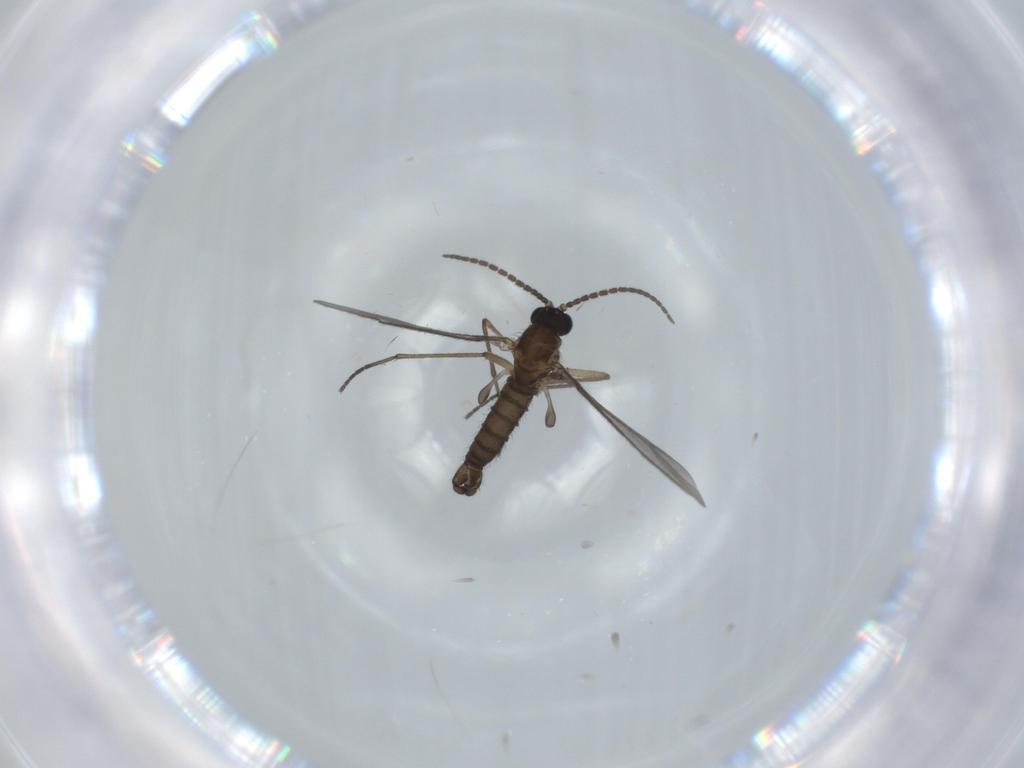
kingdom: Animalia
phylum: Arthropoda
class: Insecta
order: Diptera
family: Sciaridae
